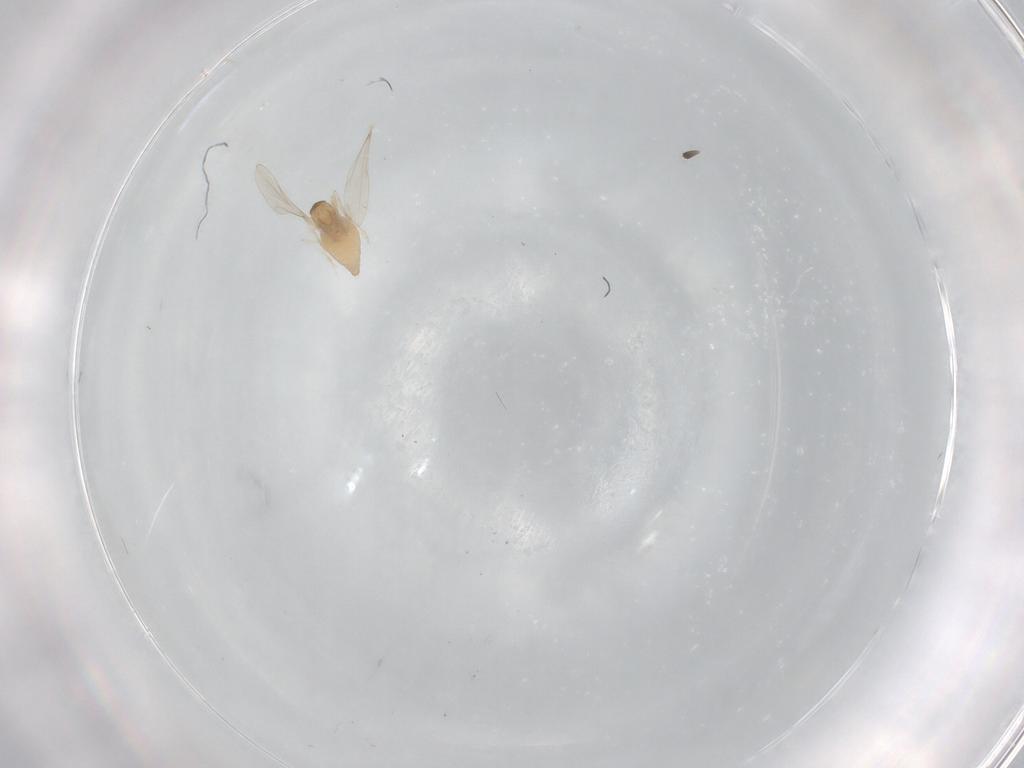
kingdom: Animalia
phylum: Arthropoda
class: Insecta
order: Diptera
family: Cecidomyiidae
